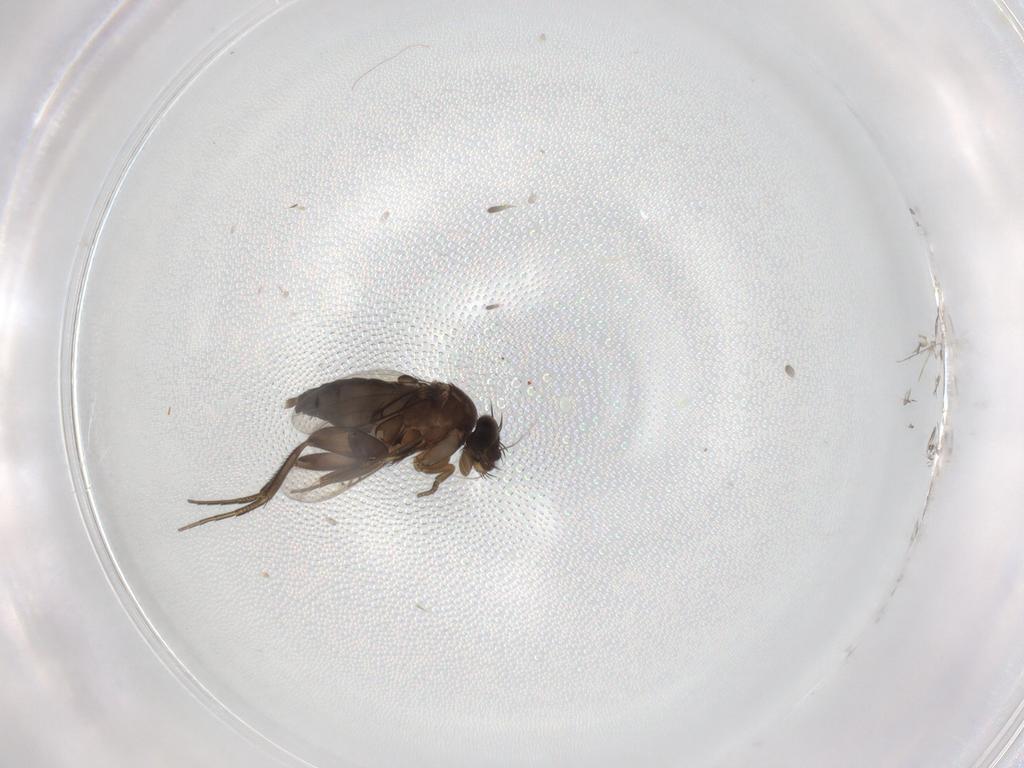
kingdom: Animalia
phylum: Arthropoda
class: Insecta
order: Diptera
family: Phoridae
